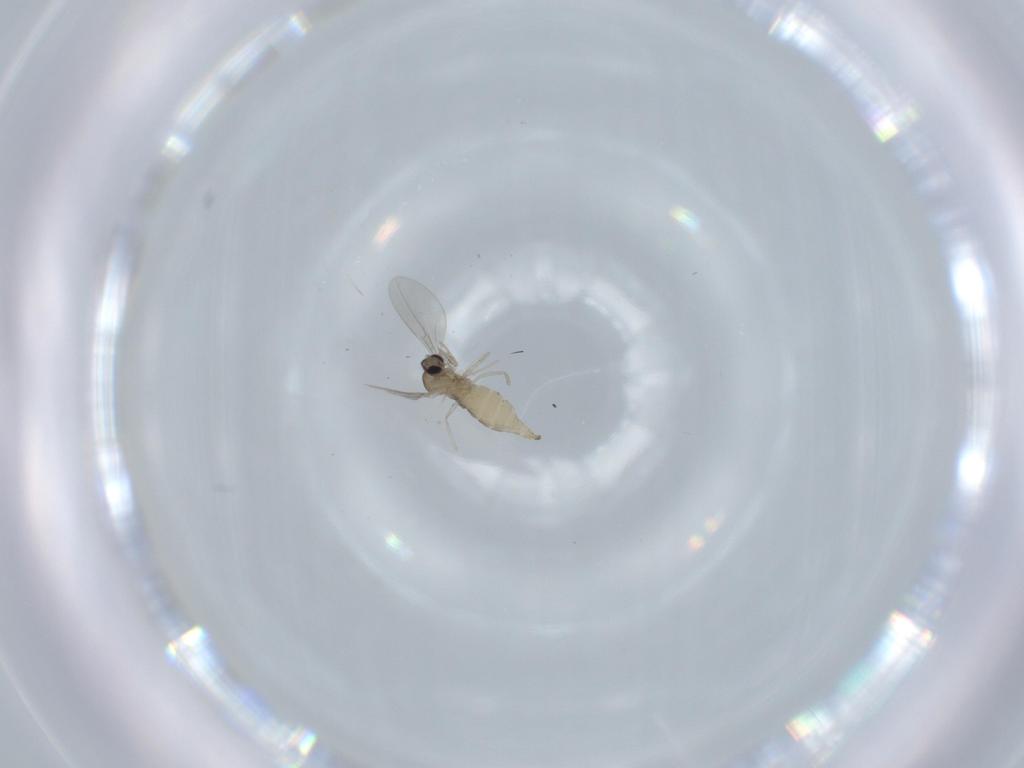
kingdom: Animalia
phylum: Arthropoda
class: Insecta
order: Diptera
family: Cecidomyiidae
